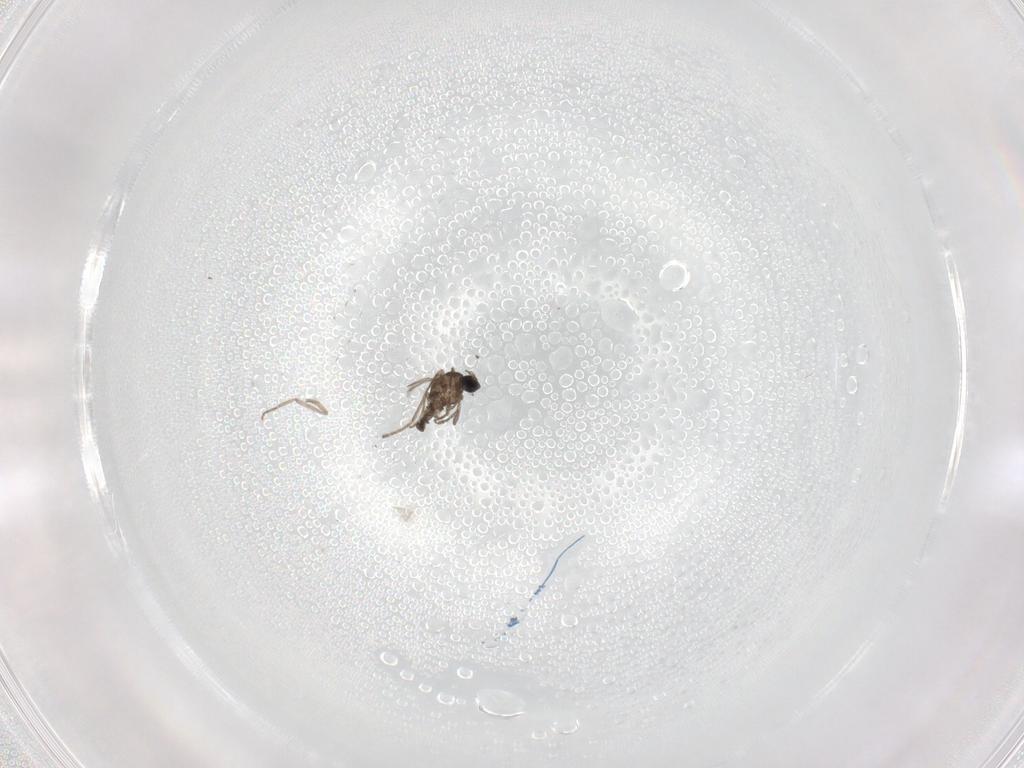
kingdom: Animalia
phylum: Arthropoda
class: Insecta
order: Diptera
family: Cecidomyiidae
